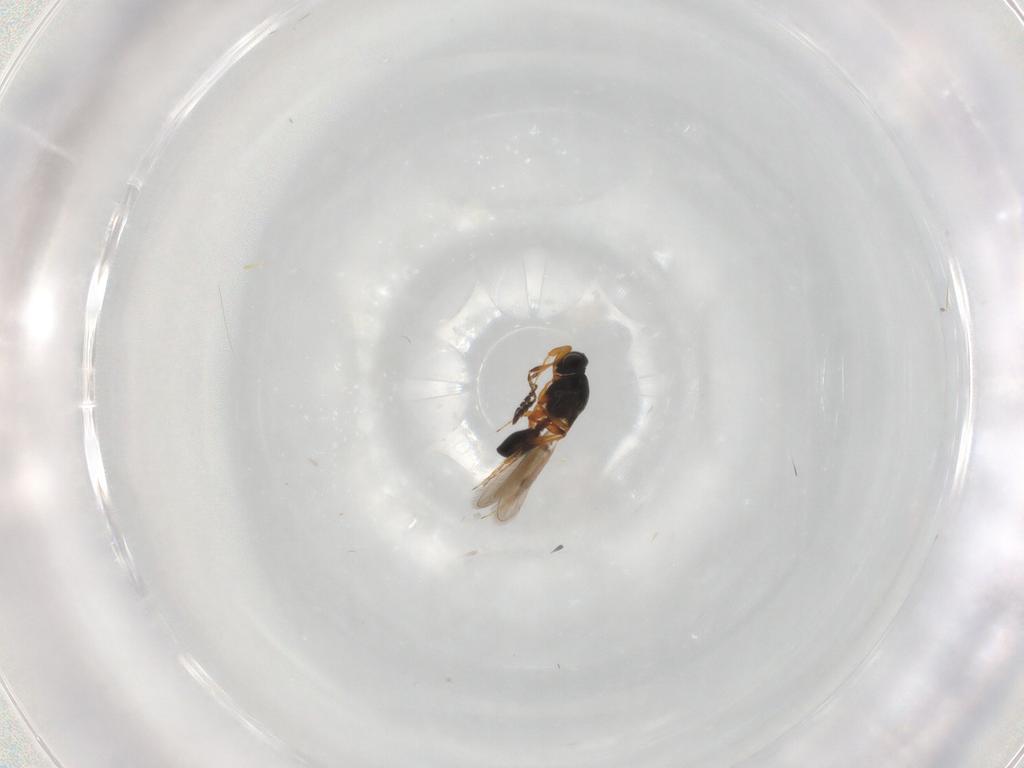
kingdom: Animalia
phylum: Arthropoda
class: Insecta
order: Hymenoptera
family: Platygastridae
